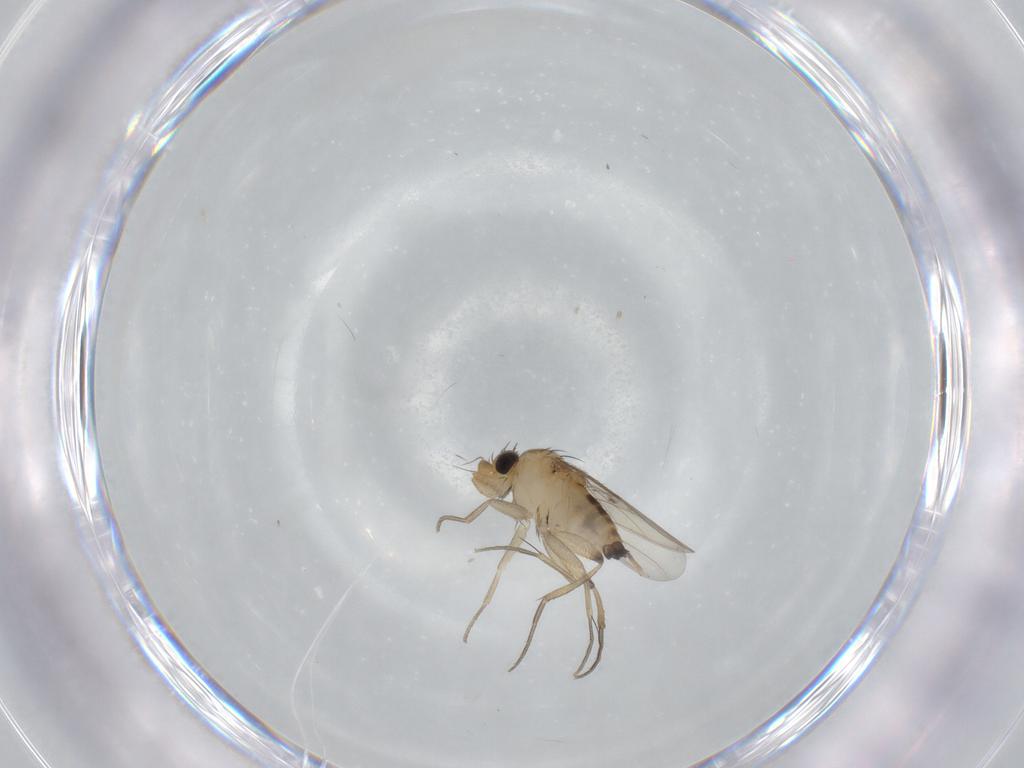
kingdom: Animalia
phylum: Arthropoda
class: Insecta
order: Diptera
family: Phoridae
